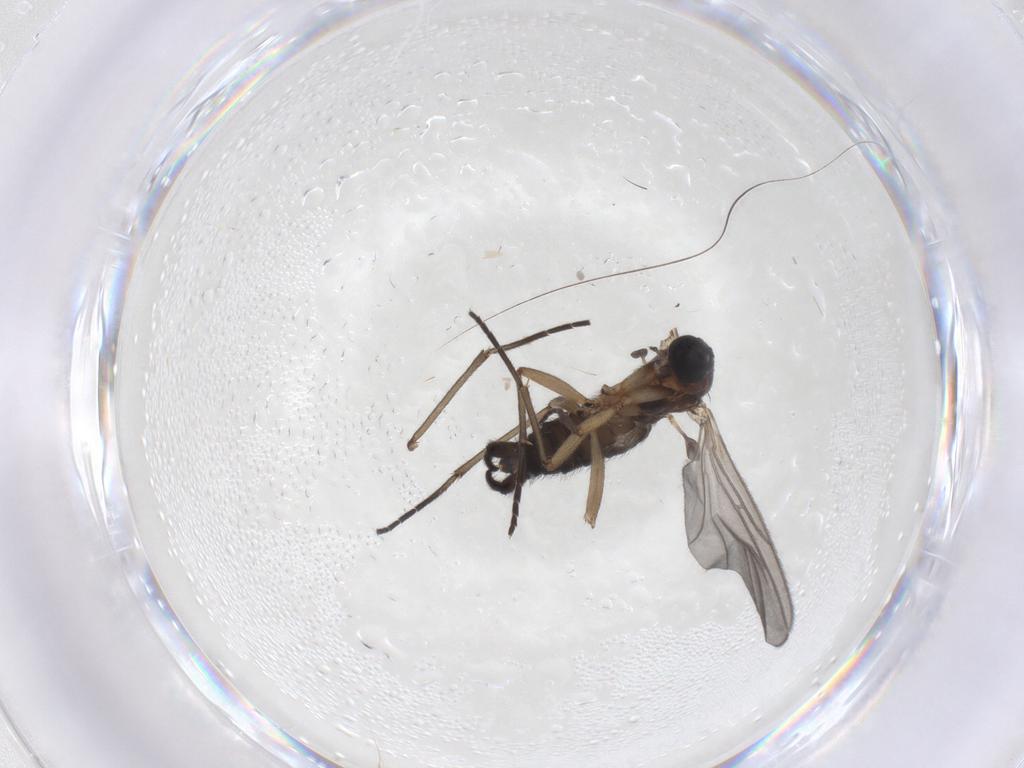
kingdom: Animalia
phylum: Arthropoda
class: Insecta
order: Diptera
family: Sciaridae
